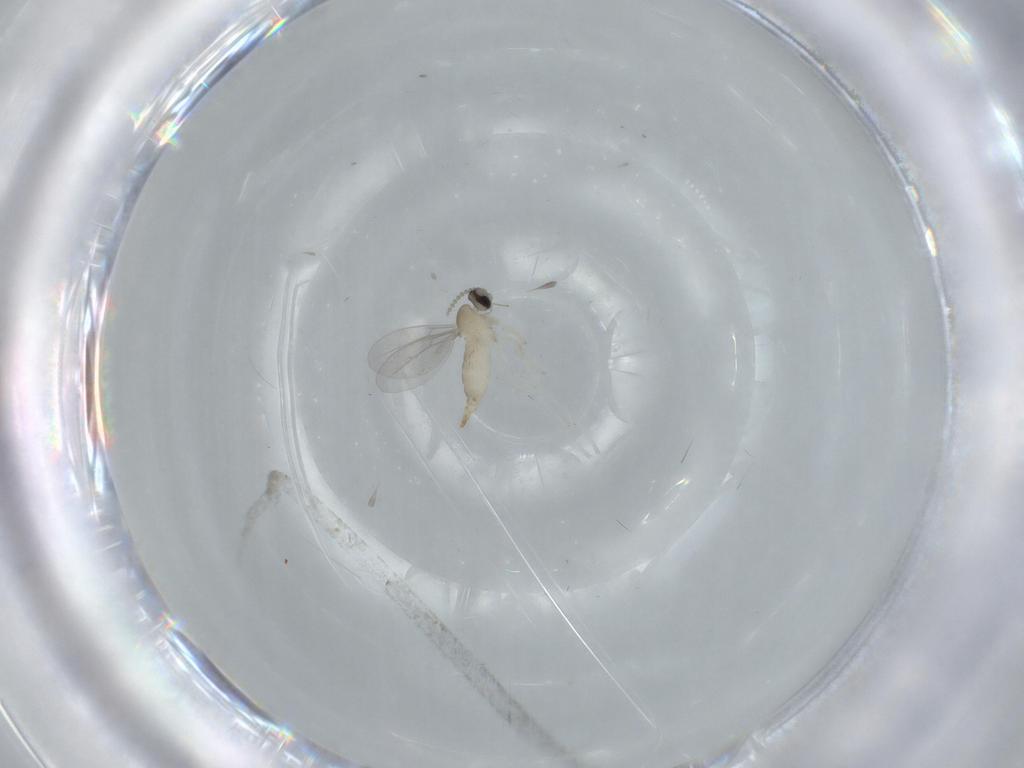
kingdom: Animalia
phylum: Arthropoda
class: Insecta
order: Diptera
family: Cecidomyiidae
